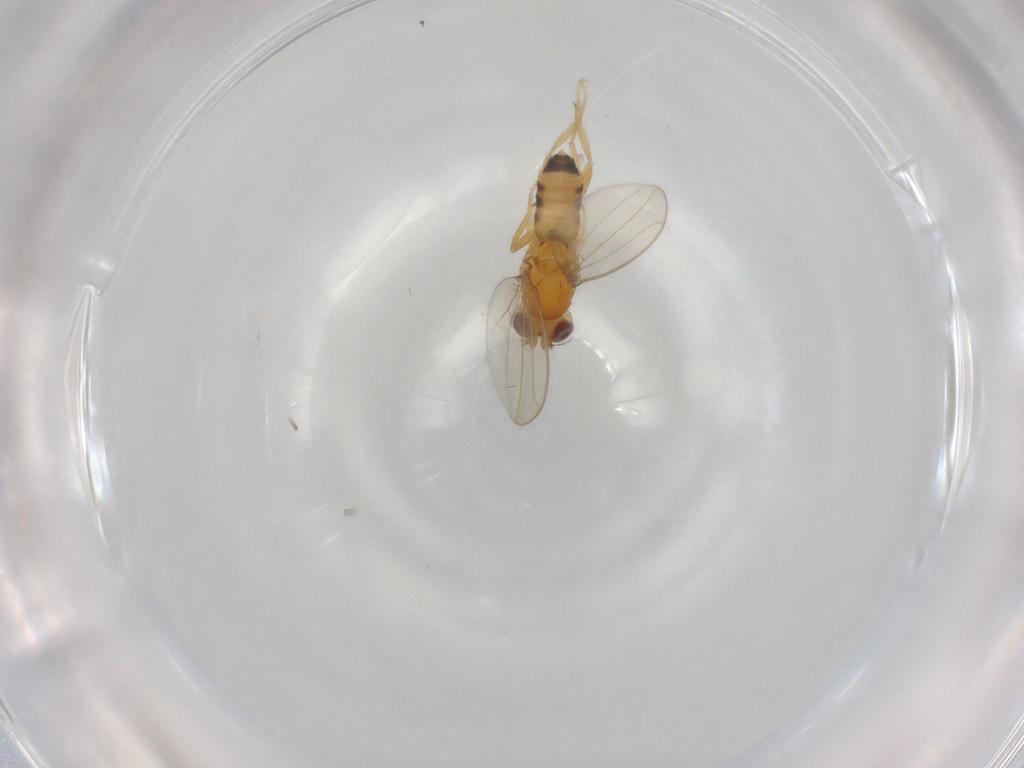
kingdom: Animalia
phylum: Arthropoda
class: Insecta
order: Diptera
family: Periscelididae
